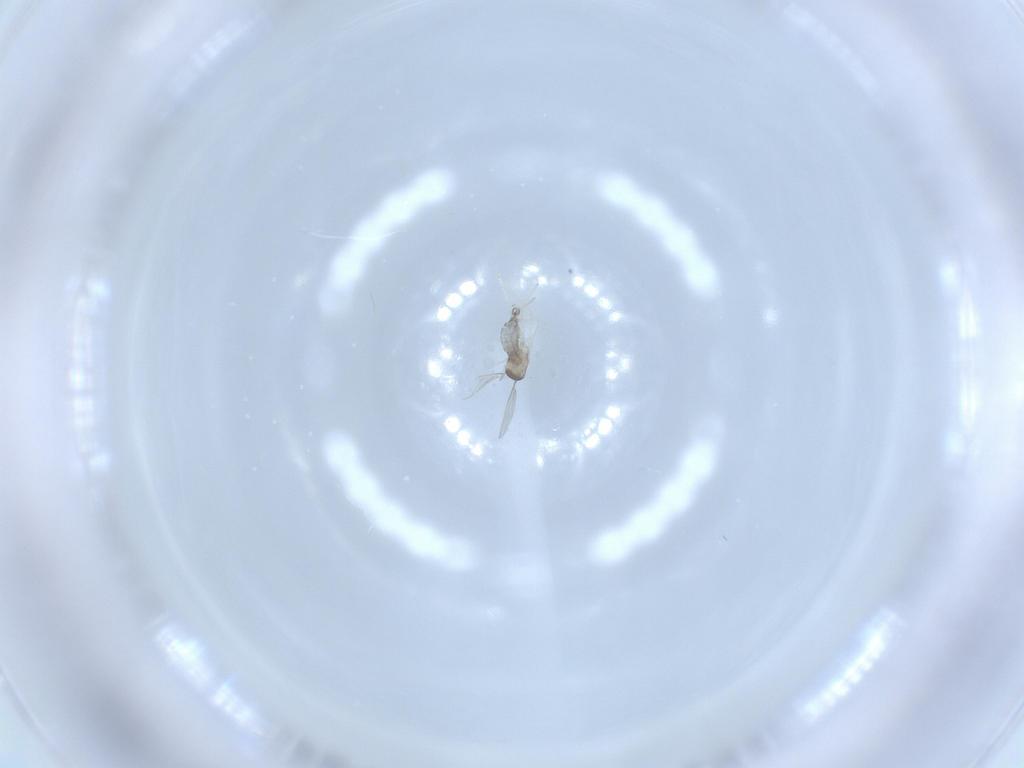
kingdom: Animalia
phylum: Arthropoda
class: Insecta
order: Diptera
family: Cecidomyiidae
